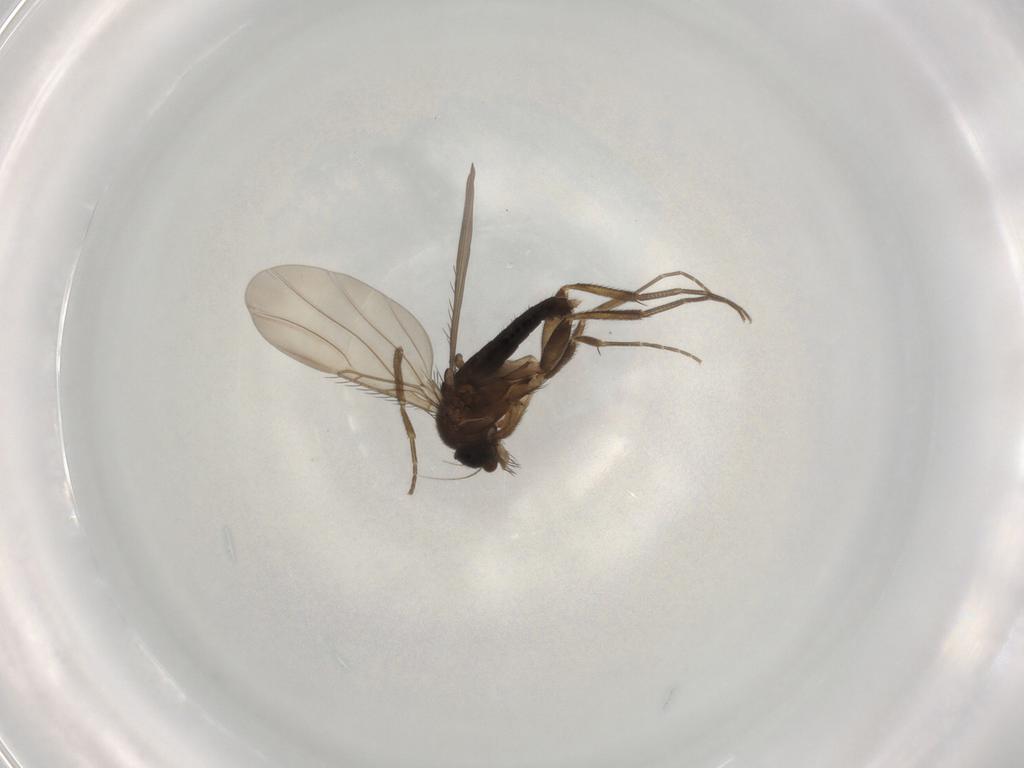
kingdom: Animalia
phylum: Arthropoda
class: Insecta
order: Diptera
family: Phoridae
